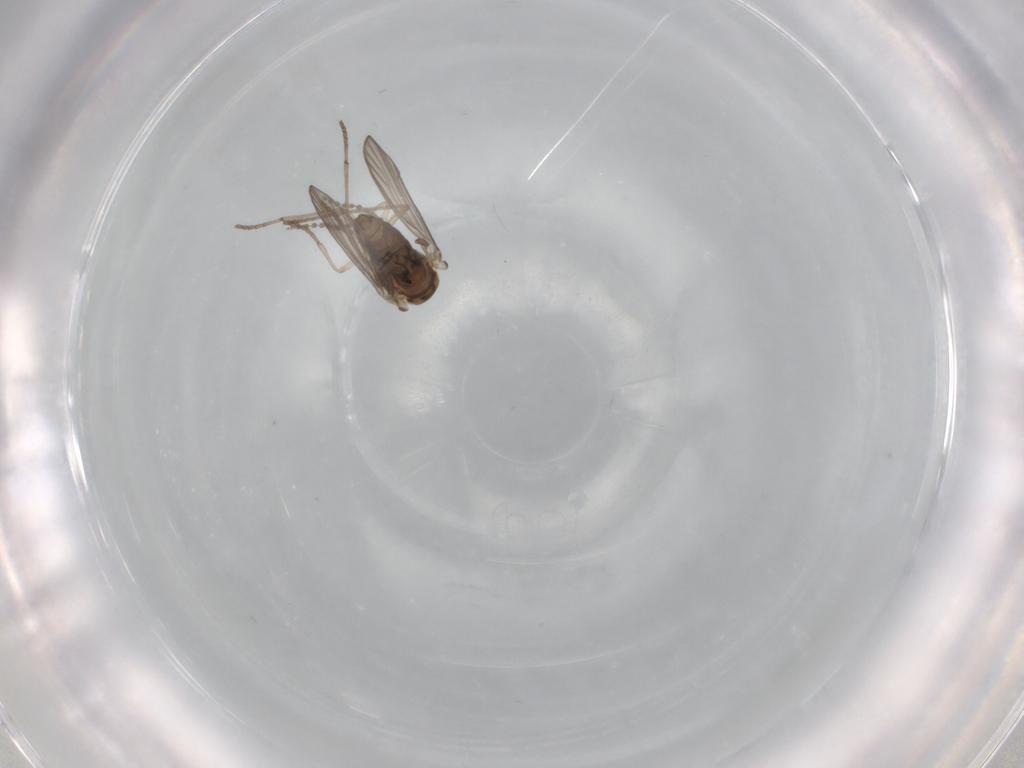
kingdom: Animalia
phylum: Arthropoda
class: Insecta
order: Diptera
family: Psychodidae
